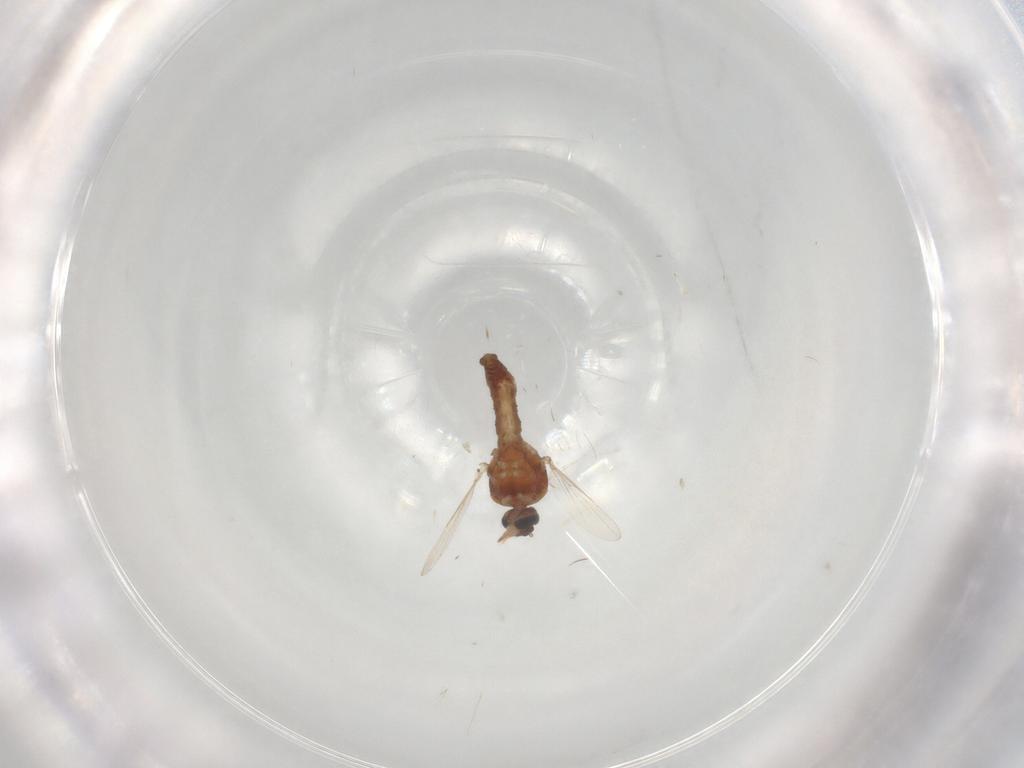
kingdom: Animalia
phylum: Arthropoda
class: Insecta
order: Diptera
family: Ceratopogonidae
